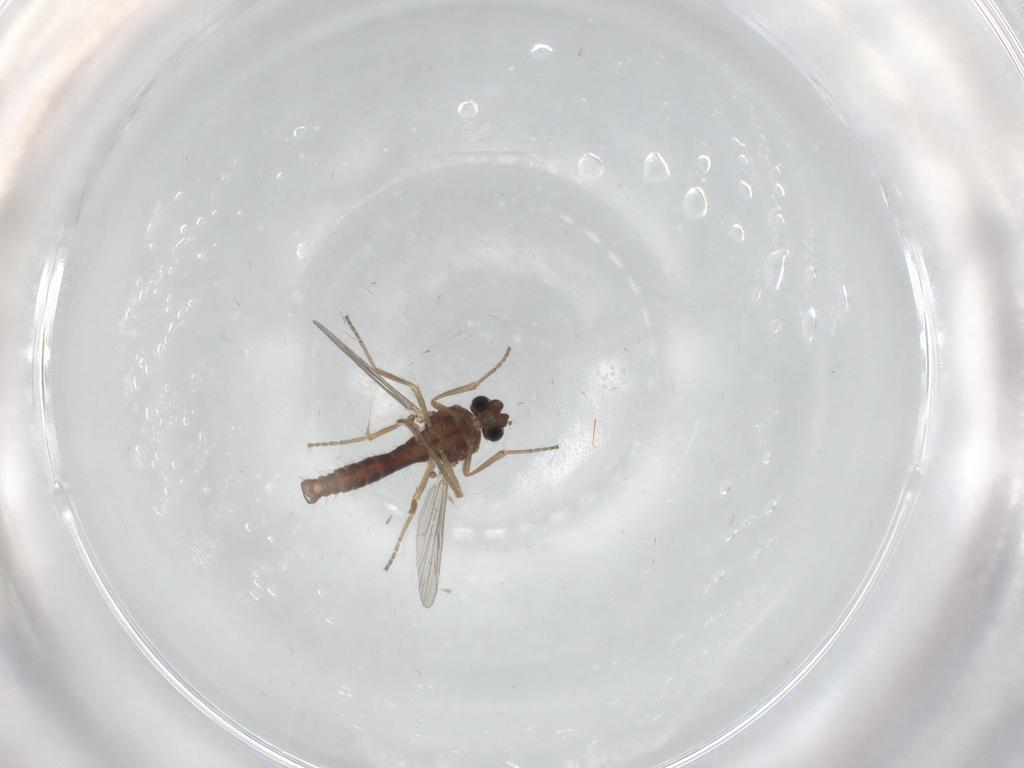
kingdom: Animalia
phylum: Arthropoda
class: Insecta
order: Diptera
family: Ceratopogonidae
